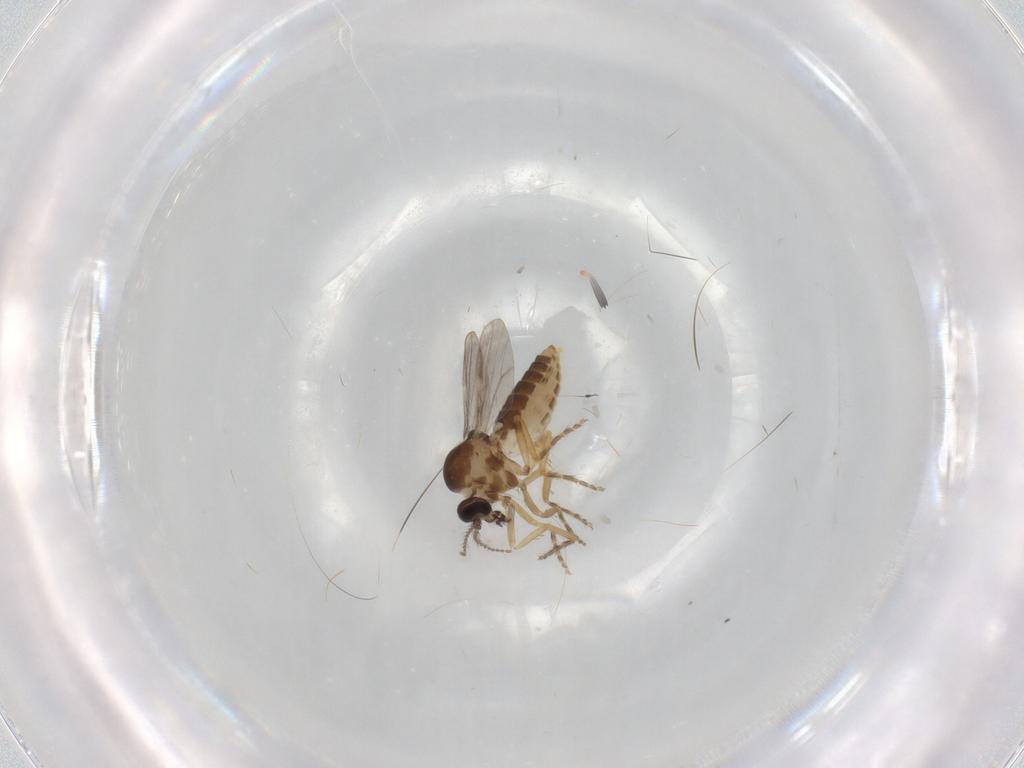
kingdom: Animalia
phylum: Arthropoda
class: Insecta
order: Diptera
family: Ceratopogonidae
